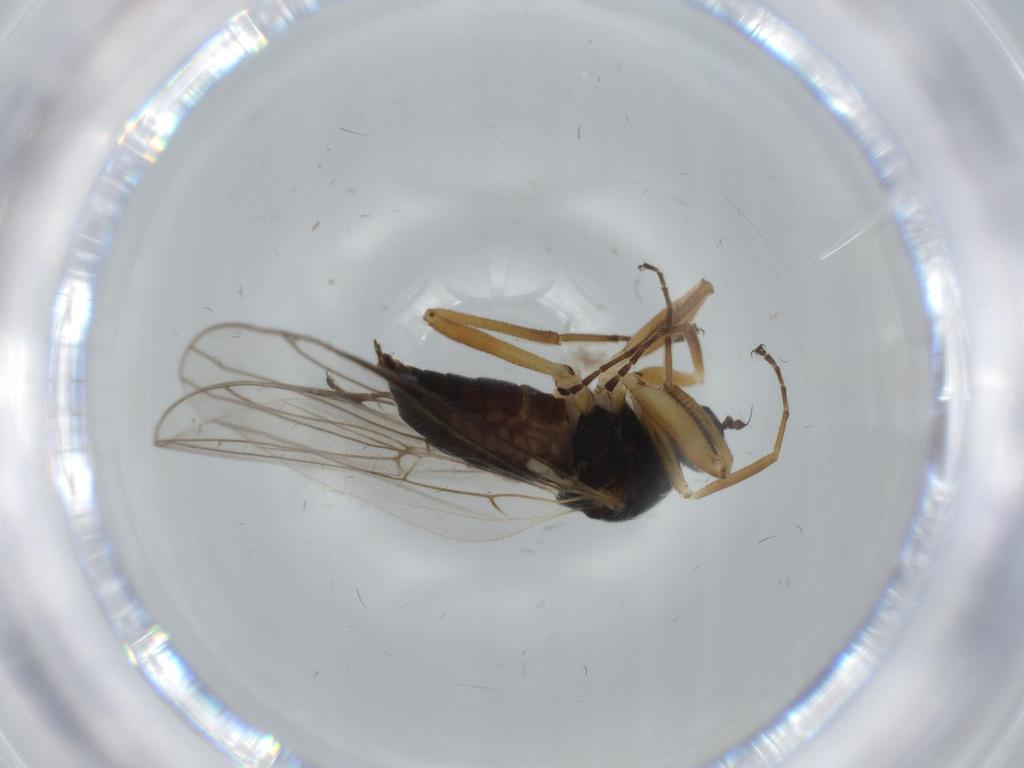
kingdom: Animalia
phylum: Arthropoda
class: Insecta
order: Diptera
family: Hybotidae
